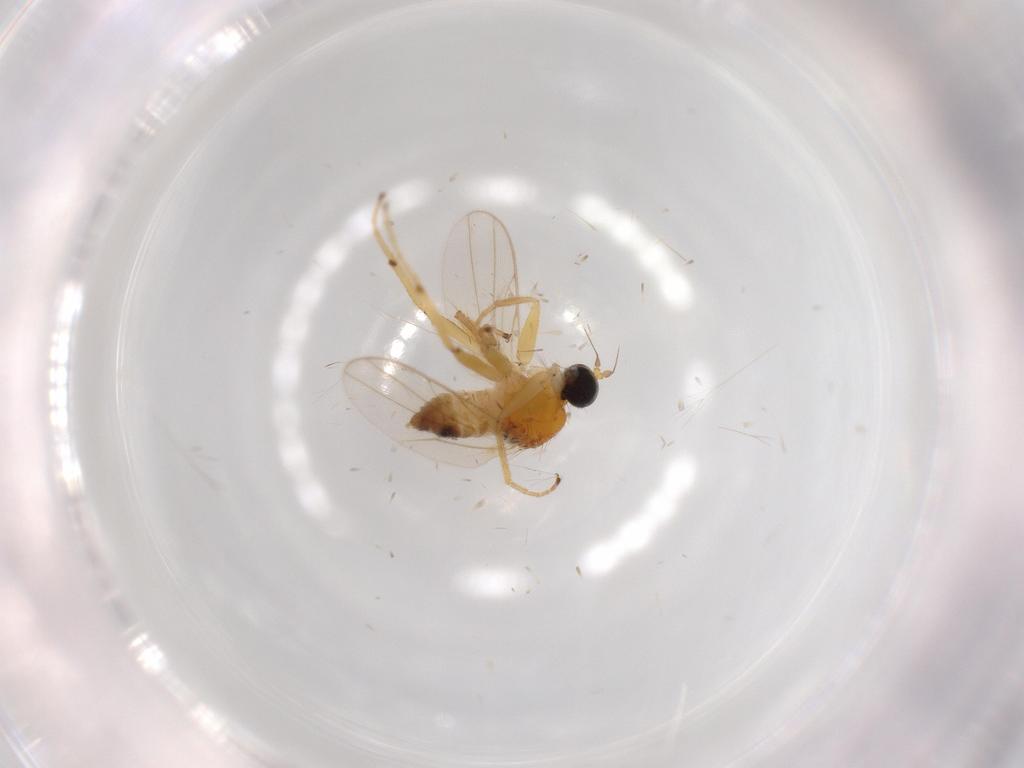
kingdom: Animalia
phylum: Arthropoda
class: Insecta
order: Diptera
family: Hybotidae
